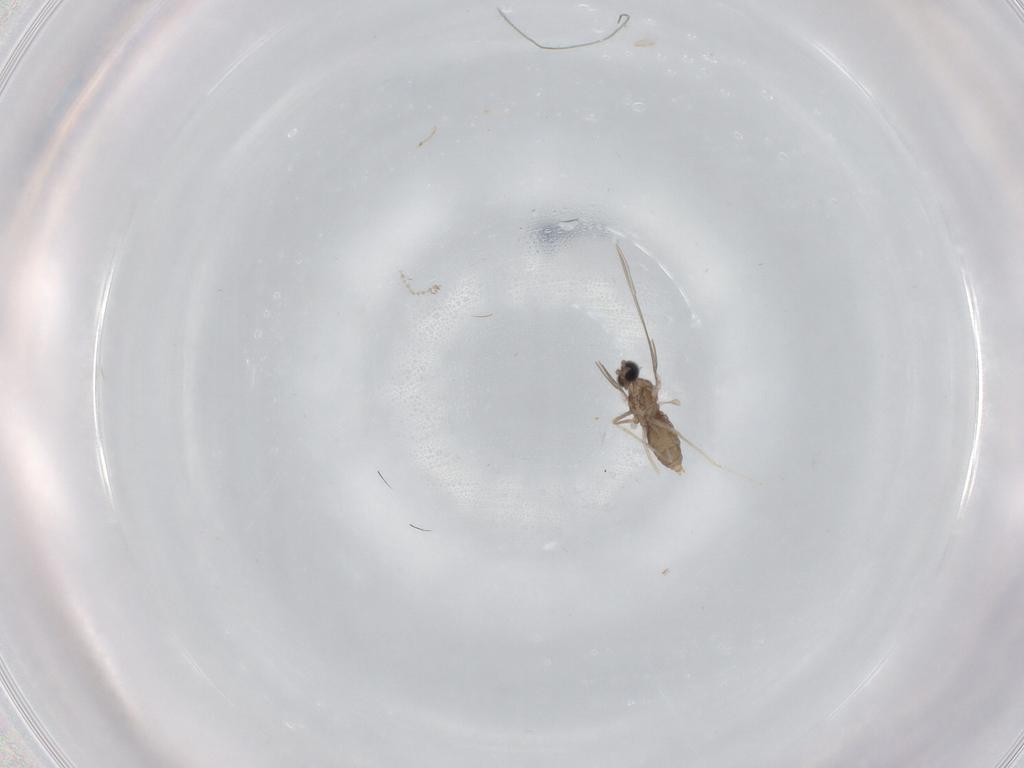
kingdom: Animalia
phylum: Arthropoda
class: Insecta
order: Diptera
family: Cecidomyiidae
